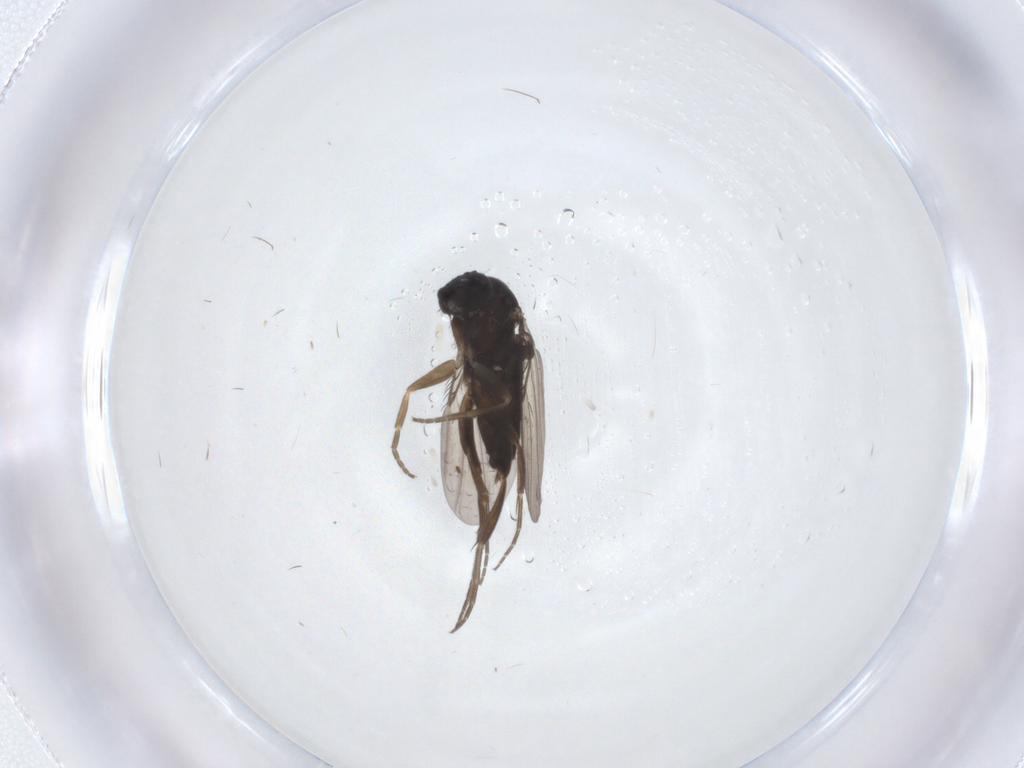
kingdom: Animalia
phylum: Arthropoda
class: Insecta
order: Diptera
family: Phoridae
